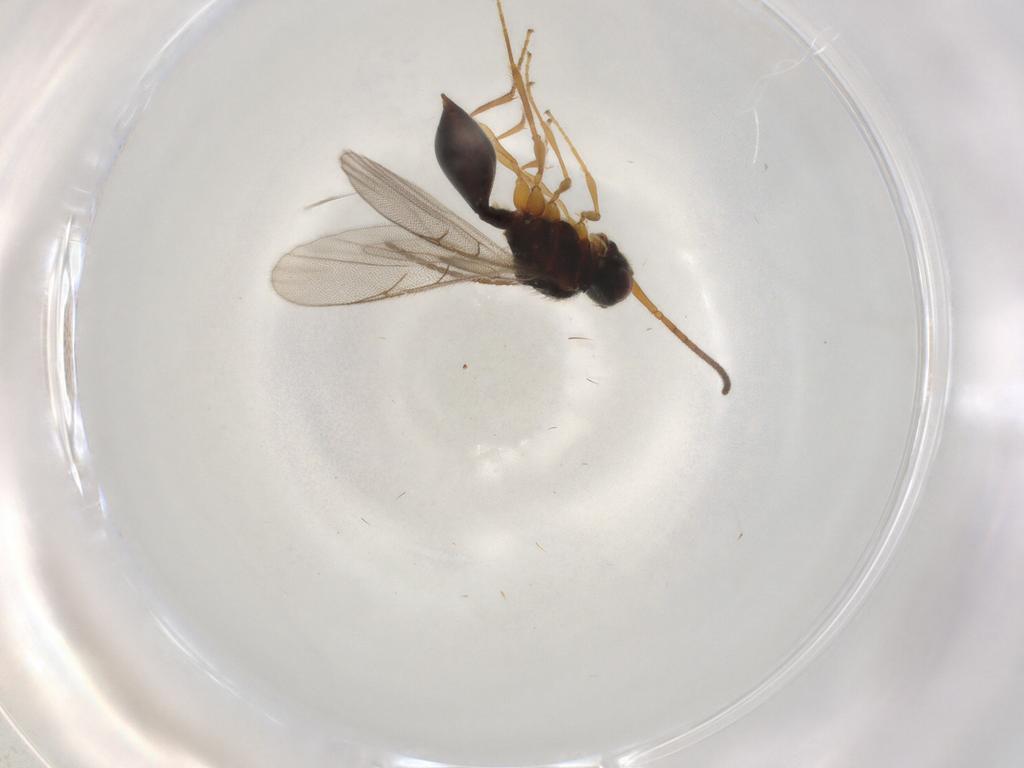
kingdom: Animalia
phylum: Arthropoda
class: Insecta
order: Hymenoptera
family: Diapriidae
